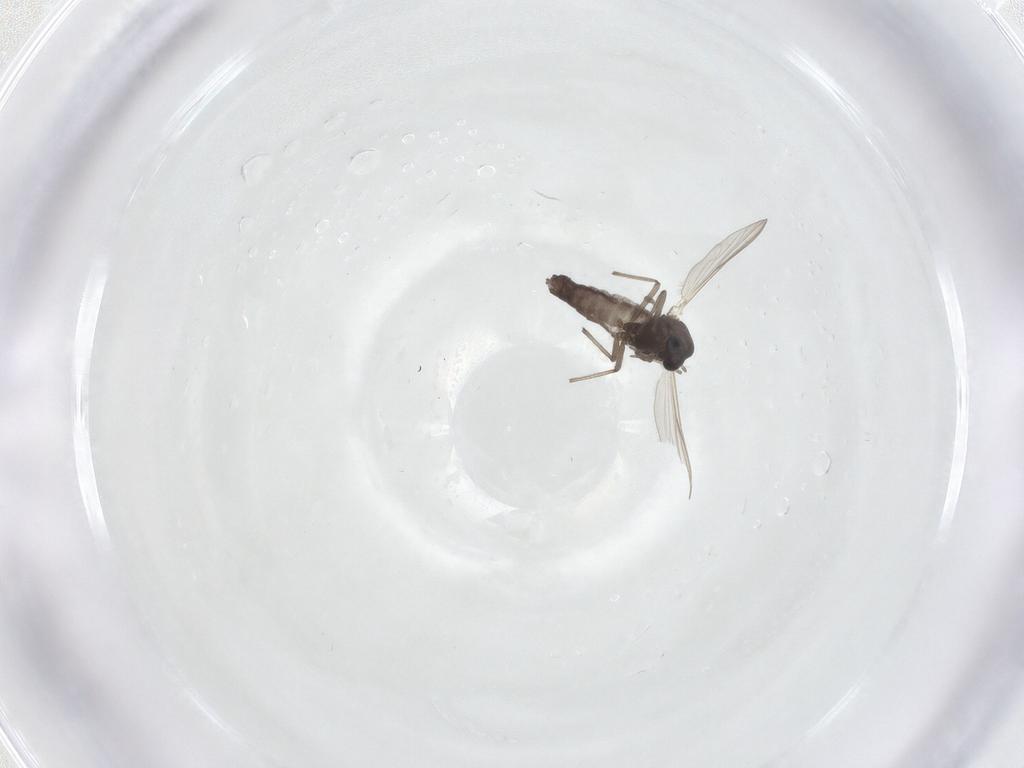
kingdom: Animalia
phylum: Arthropoda
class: Insecta
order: Diptera
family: Chironomidae
